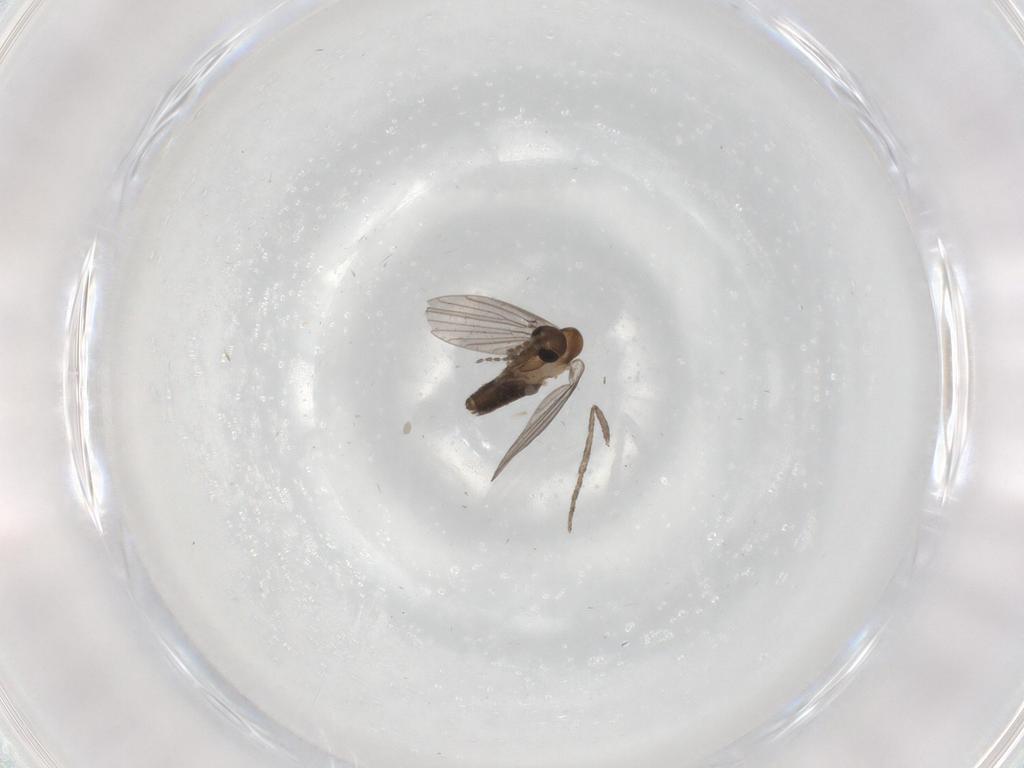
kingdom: Animalia
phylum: Arthropoda
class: Insecta
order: Diptera
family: Psychodidae
